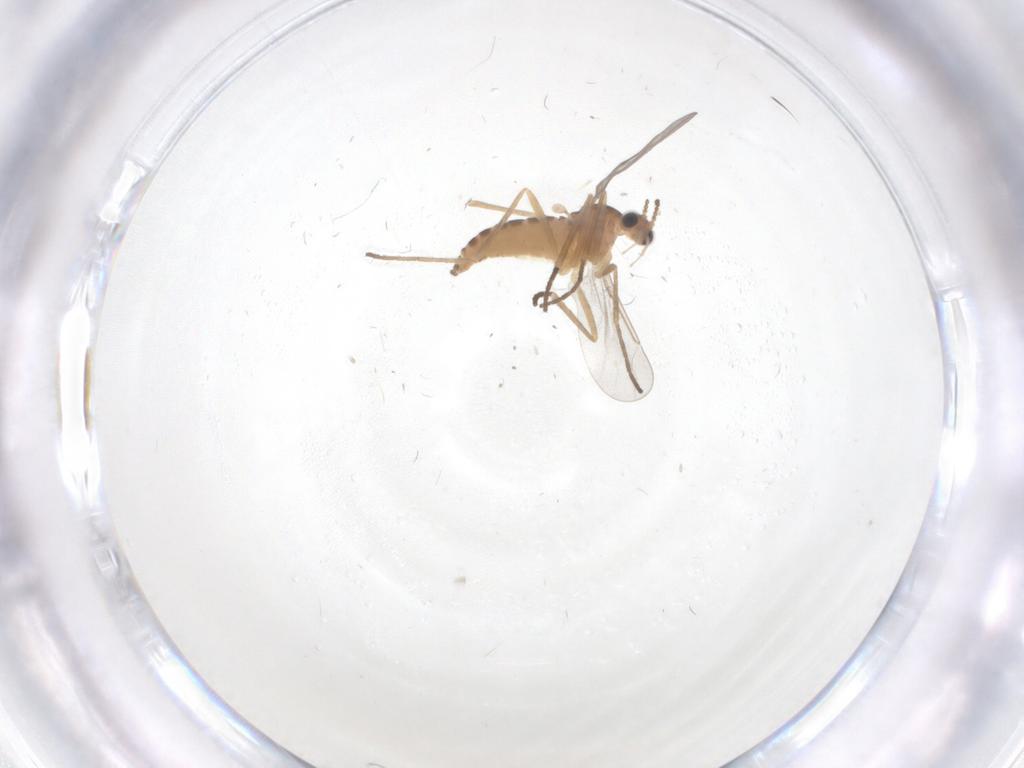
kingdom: Animalia
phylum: Arthropoda
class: Insecta
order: Diptera
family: Cecidomyiidae
